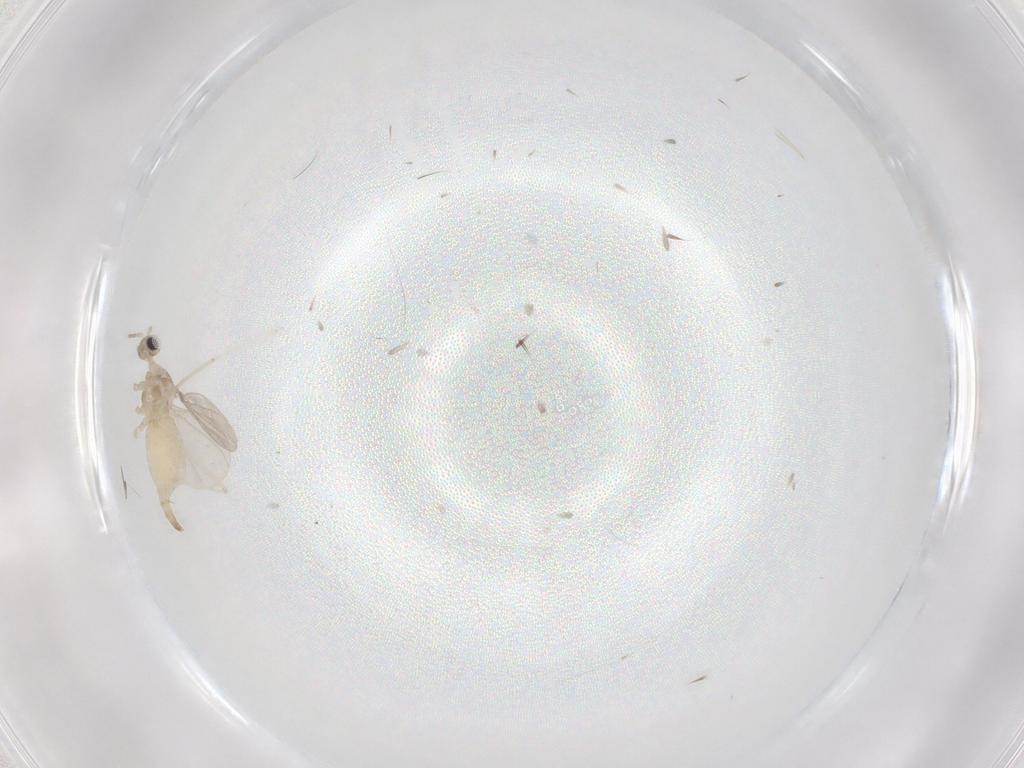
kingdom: Animalia
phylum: Arthropoda
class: Insecta
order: Diptera
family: Cecidomyiidae
